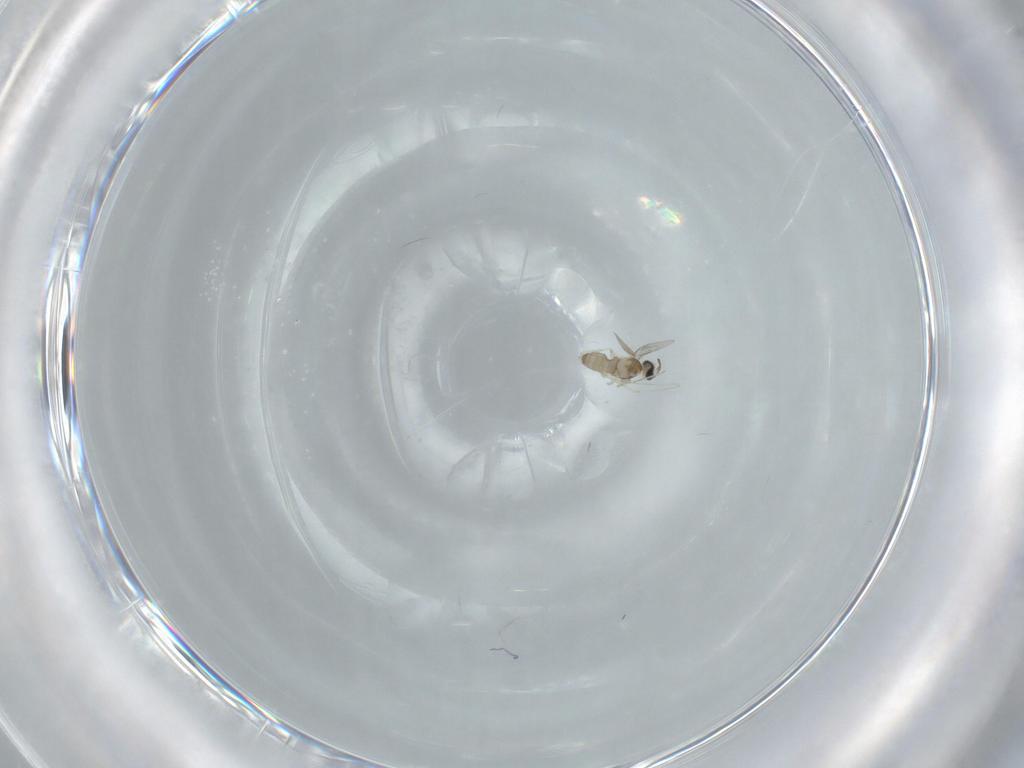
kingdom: Animalia
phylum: Arthropoda
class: Insecta
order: Diptera
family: Cecidomyiidae
